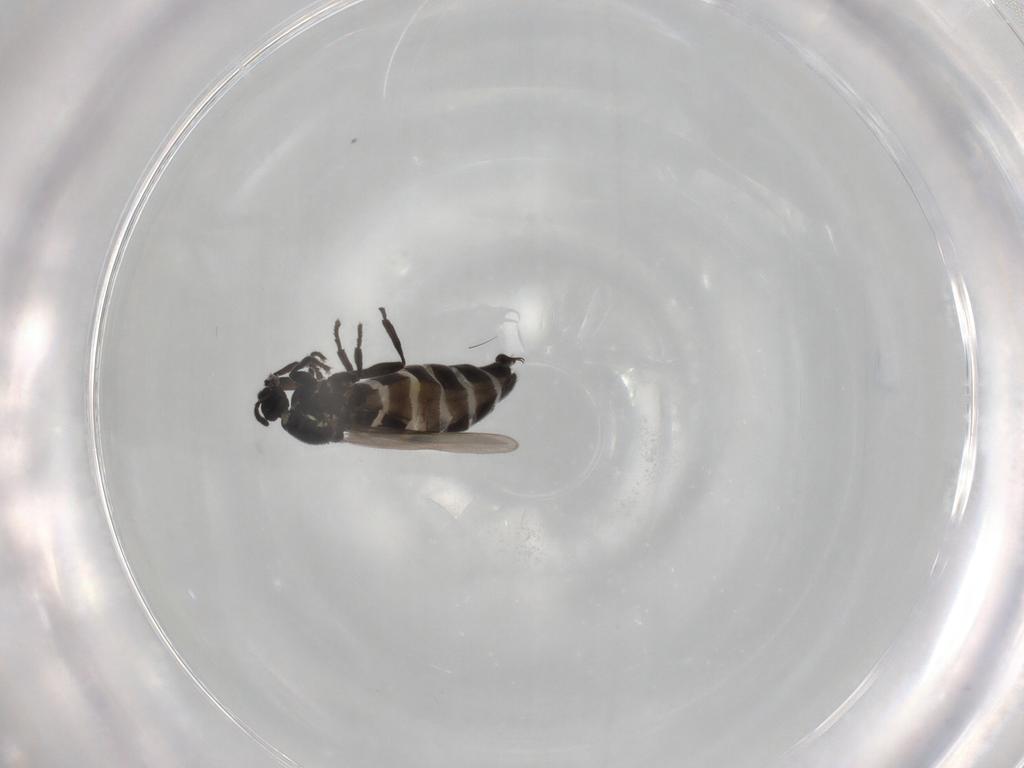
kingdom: Animalia
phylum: Arthropoda
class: Insecta
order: Diptera
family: Scatopsidae
